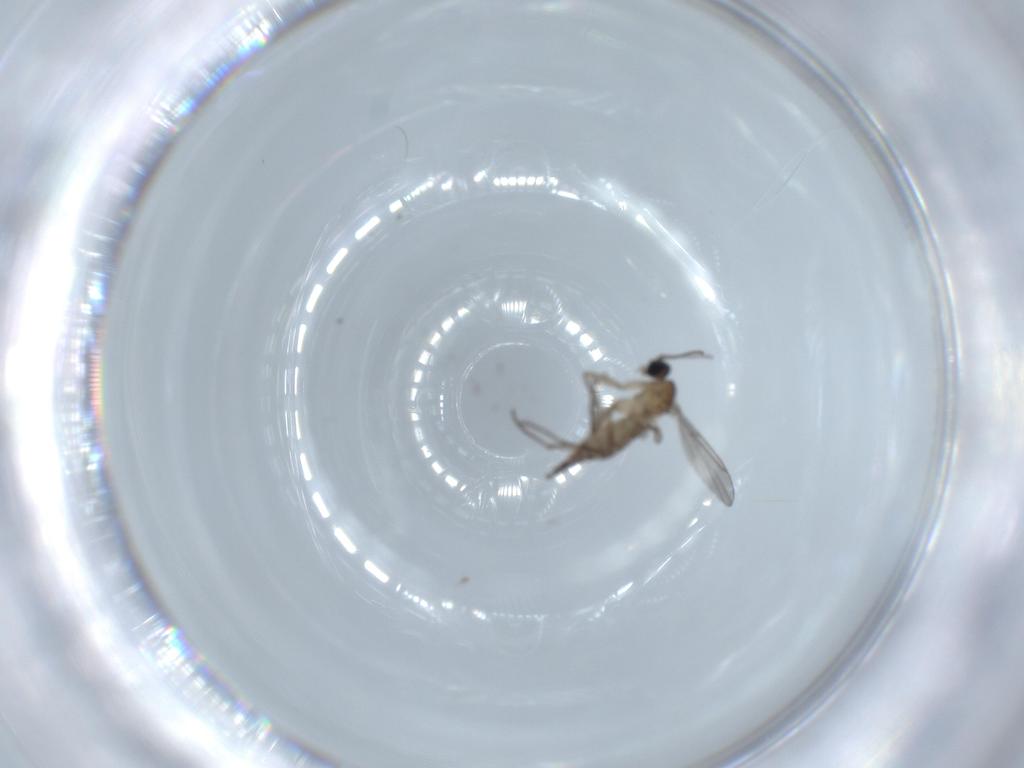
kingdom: Animalia
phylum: Arthropoda
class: Insecta
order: Diptera
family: Sciaridae
